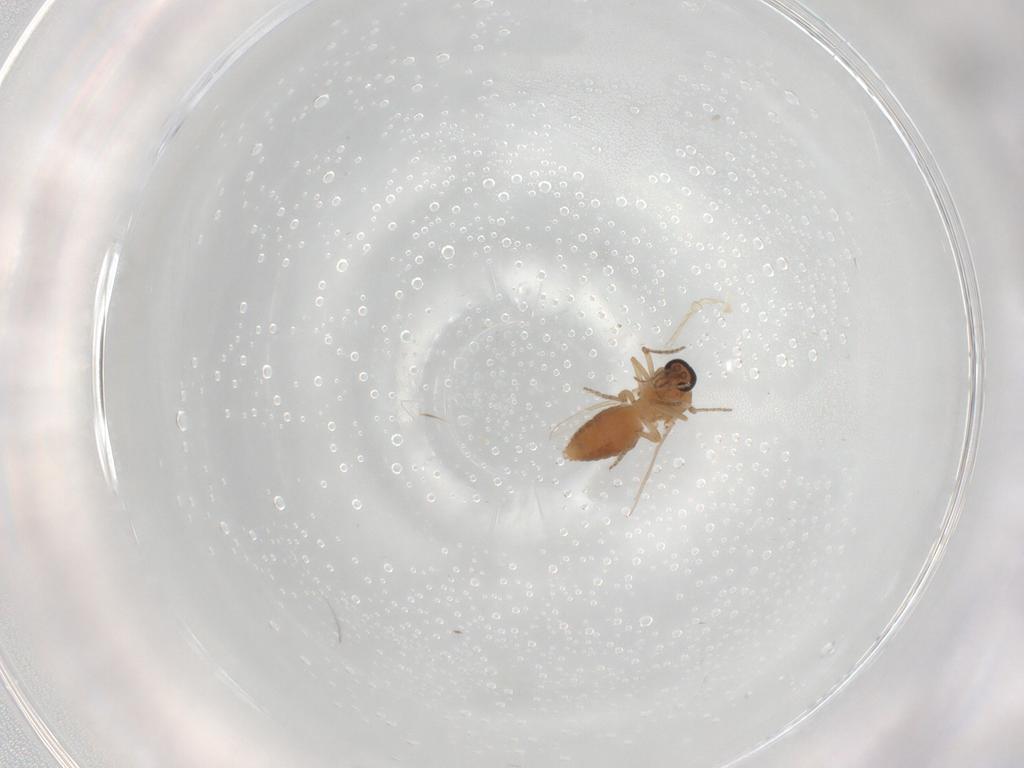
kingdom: Animalia
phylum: Arthropoda
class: Insecta
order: Diptera
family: Ceratopogonidae
